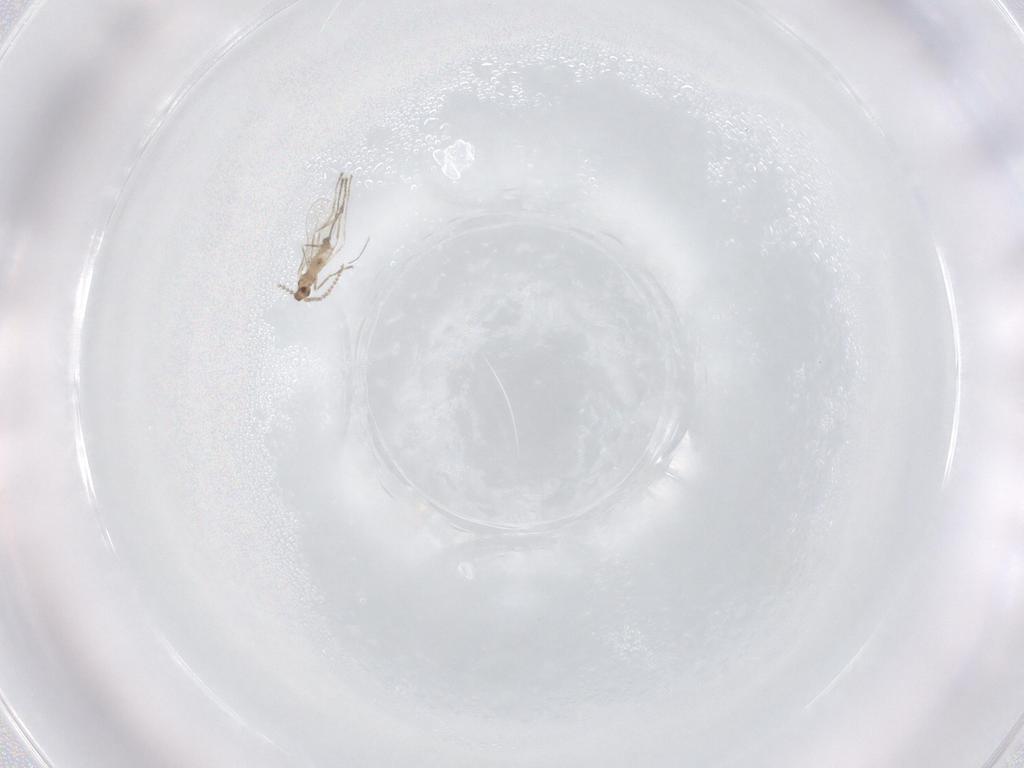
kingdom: Animalia
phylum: Arthropoda
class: Insecta
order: Diptera
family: Cecidomyiidae
